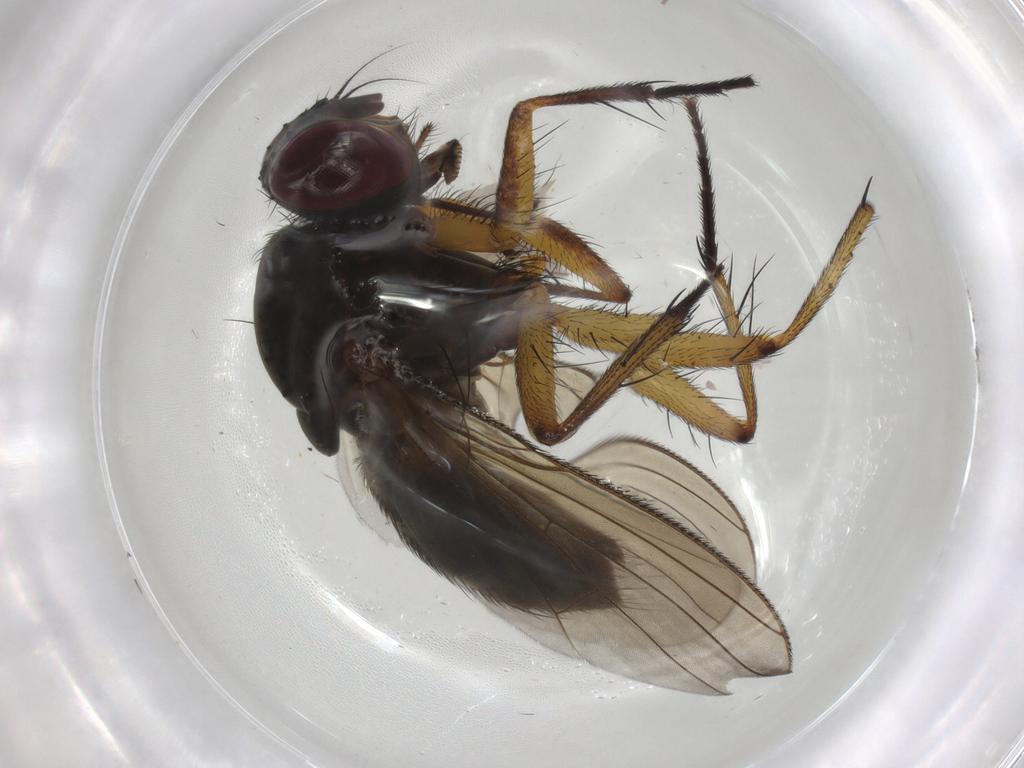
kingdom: Animalia
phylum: Arthropoda
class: Insecta
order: Diptera
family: Muscidae
